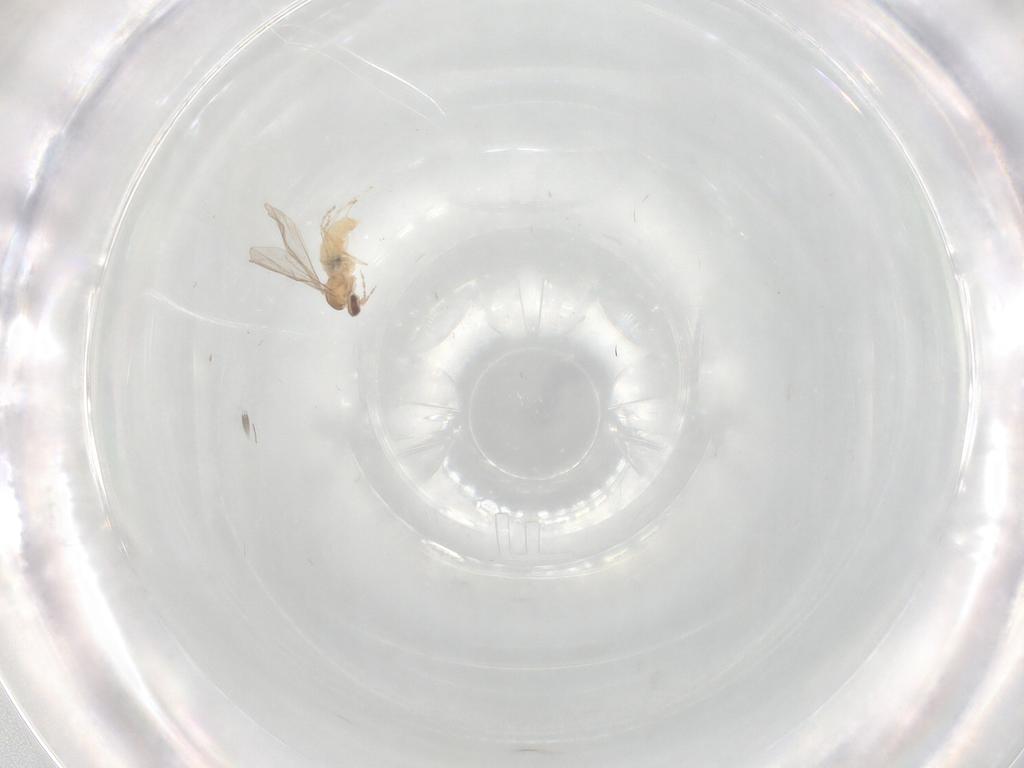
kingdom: Animalia
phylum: Arthropoda
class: Insecta
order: Diptera
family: Cecidomyiidae
